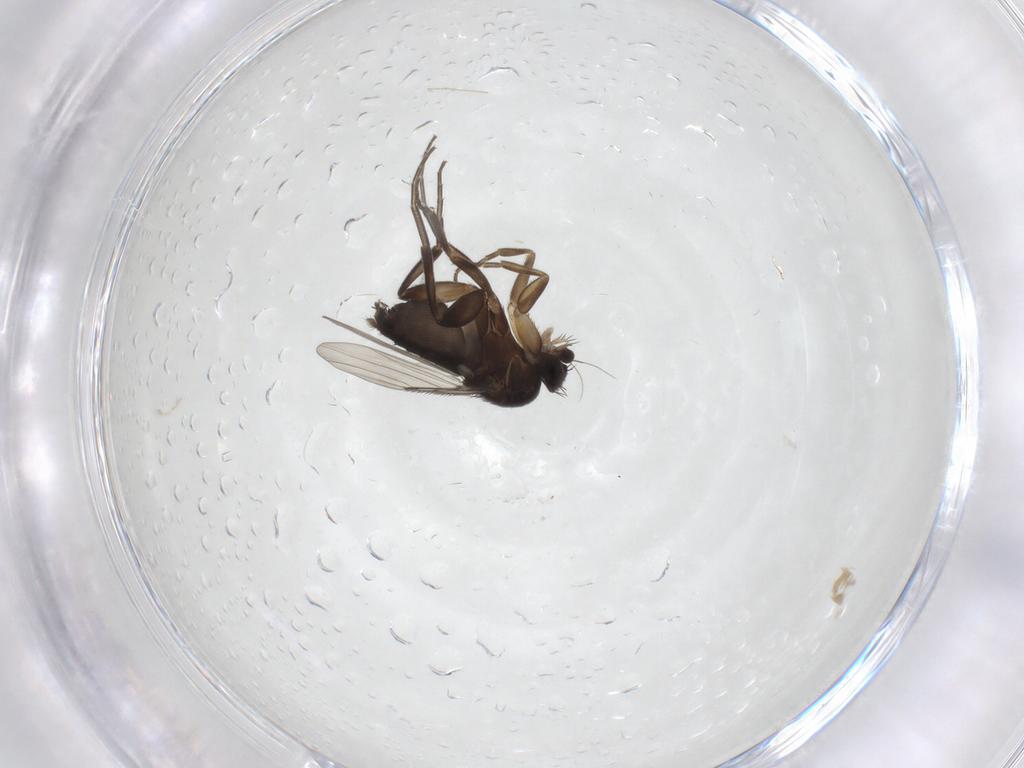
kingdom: Animalia
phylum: Arthropoda
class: Insecta
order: Diptera
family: Phoridae
